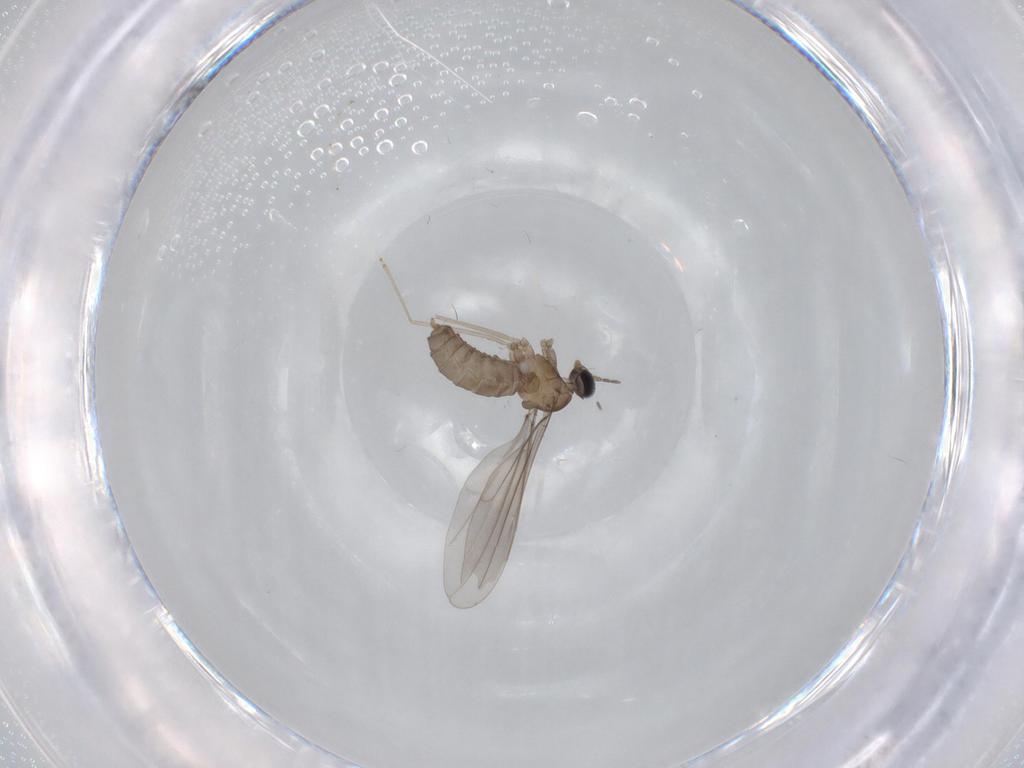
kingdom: Animalia
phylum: Arthropoda
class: Insecta
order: Diptera
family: Cecidomyiidae
